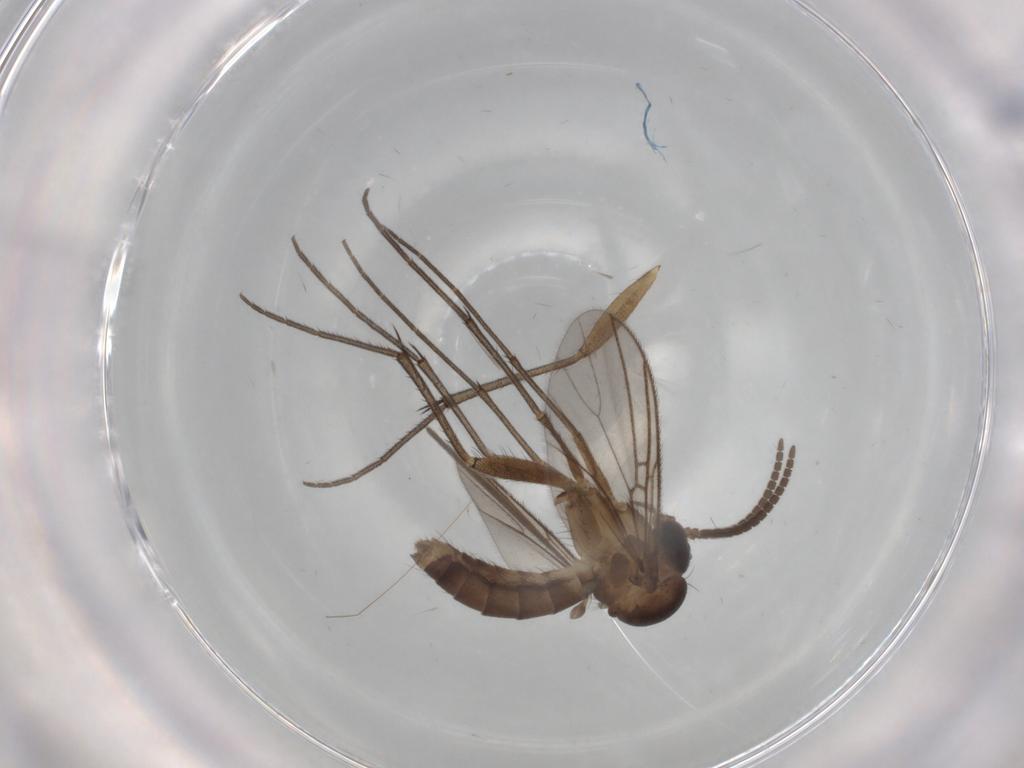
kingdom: Animalia
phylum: Arthropoda
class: Insecta
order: Diptera
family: Mycetophilidae
